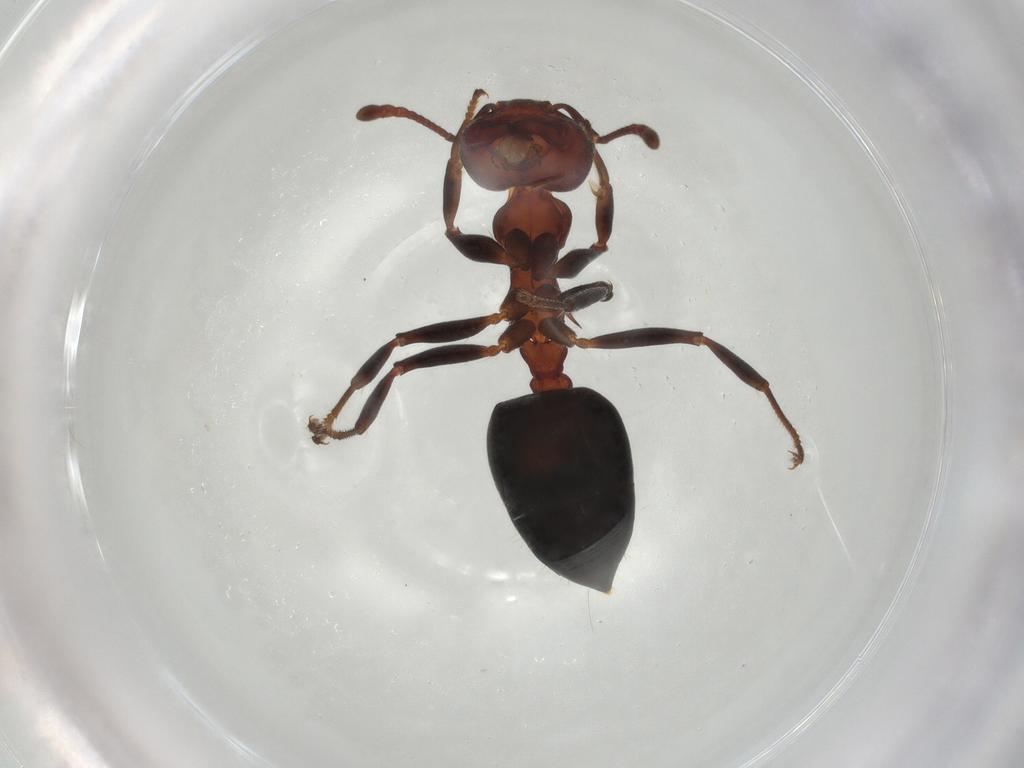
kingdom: Animalia
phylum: Arthropoda
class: Insecta
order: Hymenoptera
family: Formicidae
